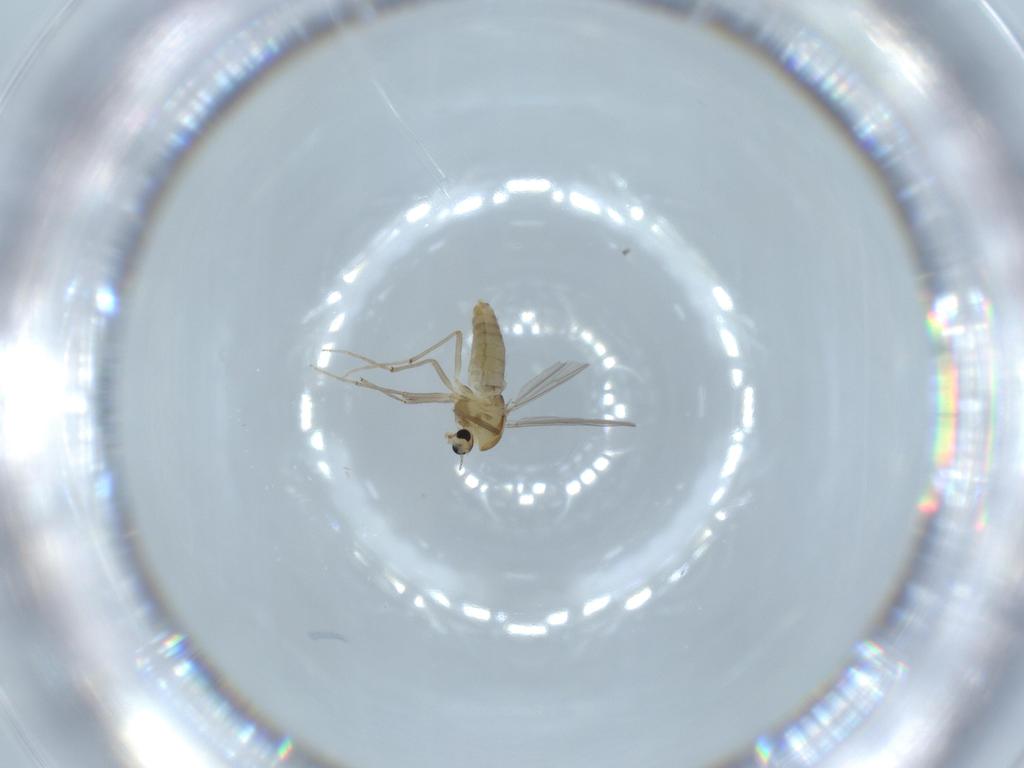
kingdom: Animalia
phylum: Arthropoda
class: Insecta
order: Diptera
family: Chironomidae
